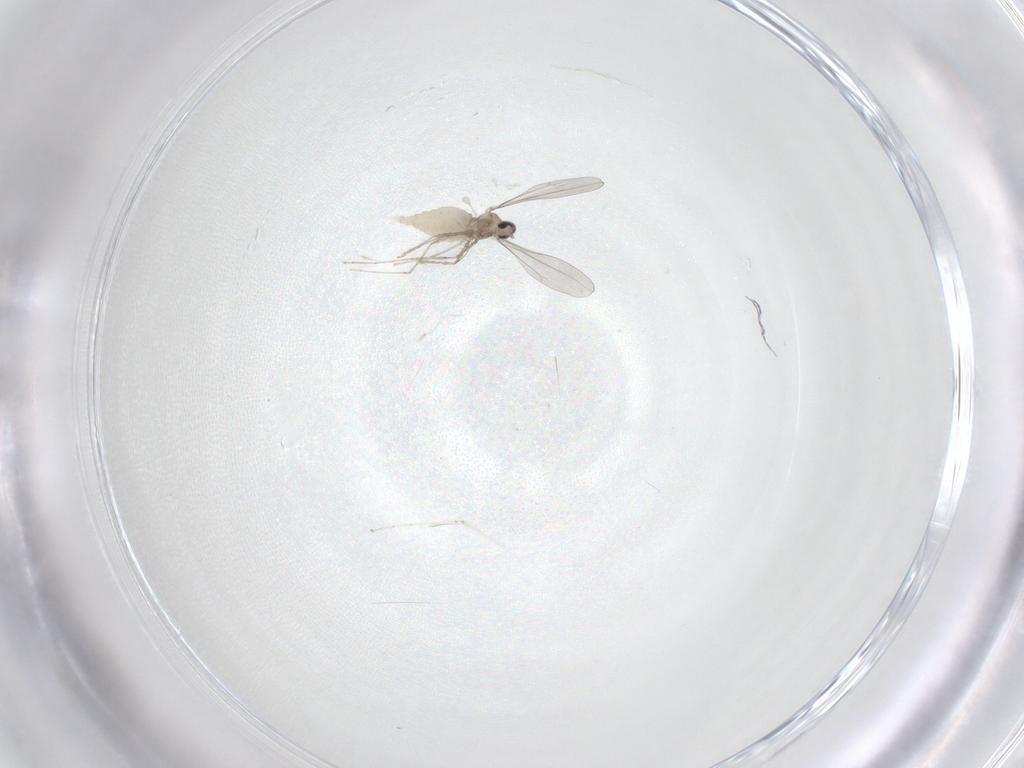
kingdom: Animalia
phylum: Arthropoda
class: Insecta
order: Diptera
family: Cecidomyiidae
